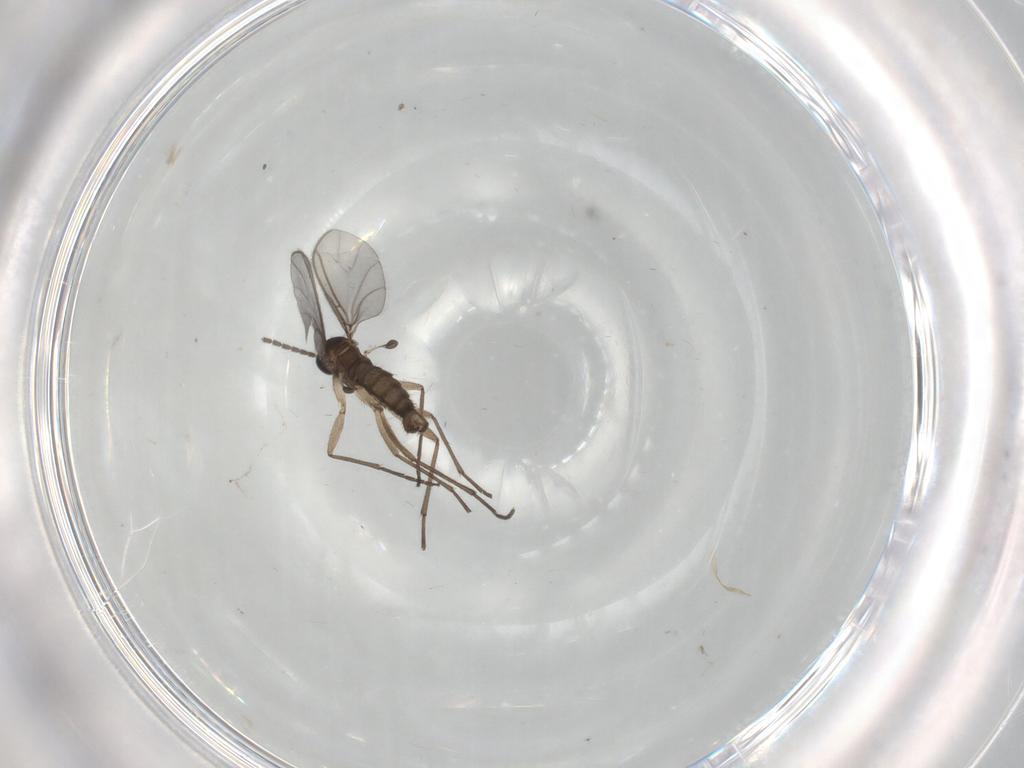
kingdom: Animalia
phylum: Arthropoda
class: Insecta
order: Diptera
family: Sciaridae
